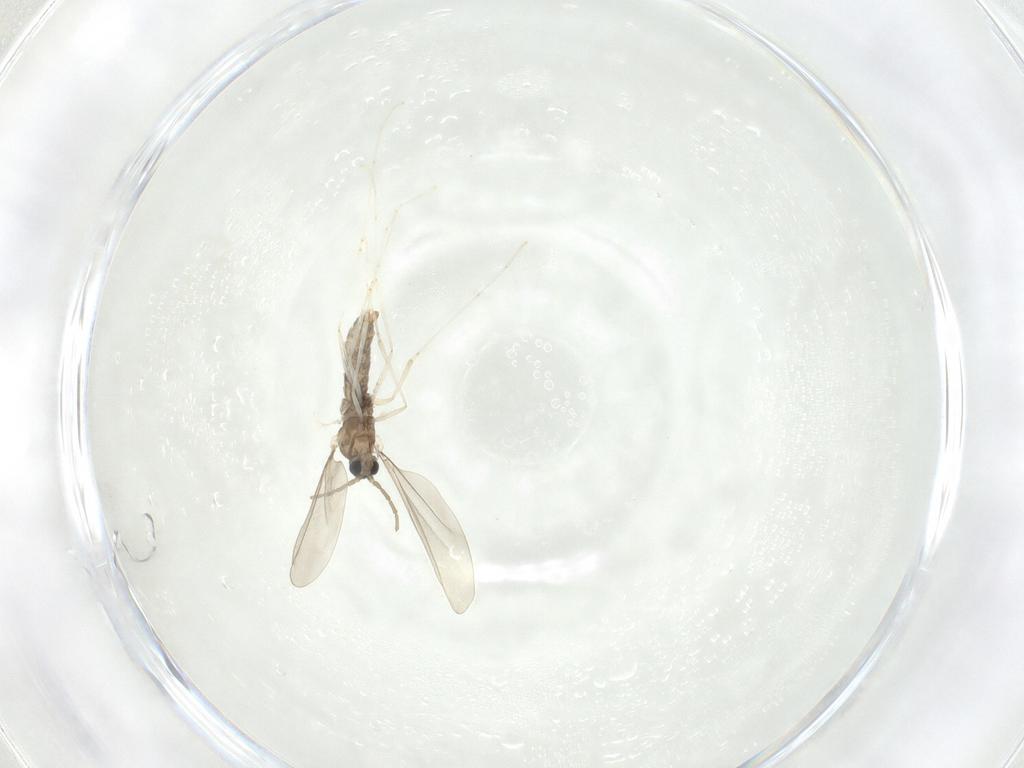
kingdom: Animalia
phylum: Arthropoda
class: Insecta
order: Diptera
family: Cecidomyiidae
